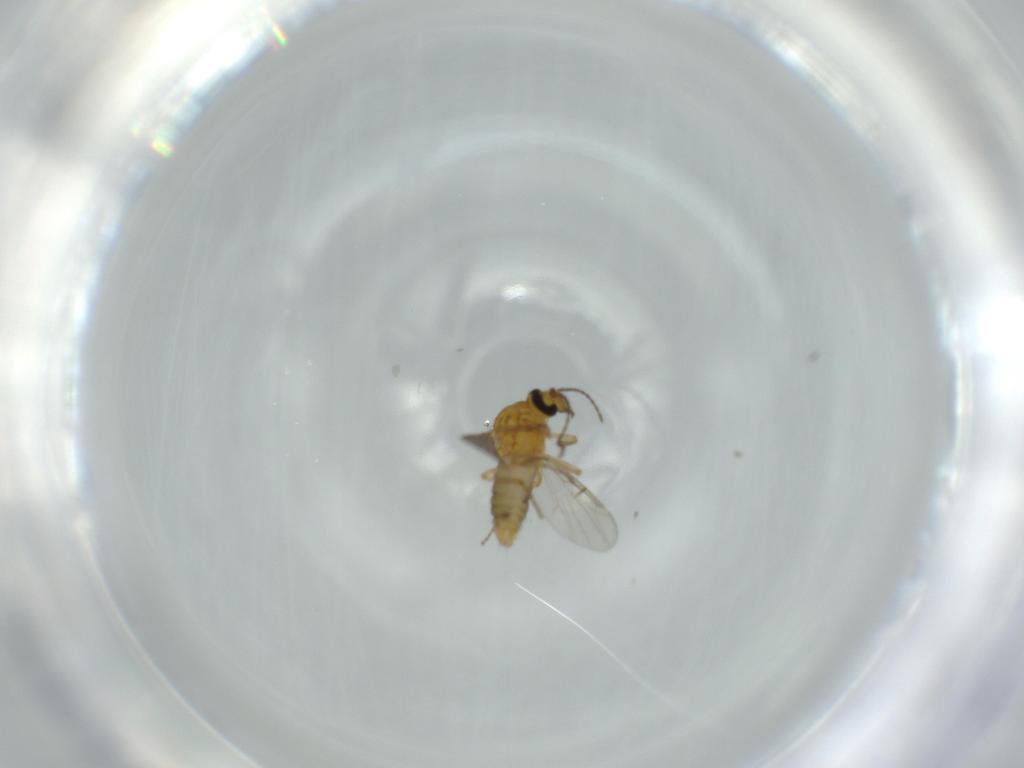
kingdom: Animalia
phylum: Arthropoda
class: Insecta
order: Diptera
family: Ceratopogonidae
